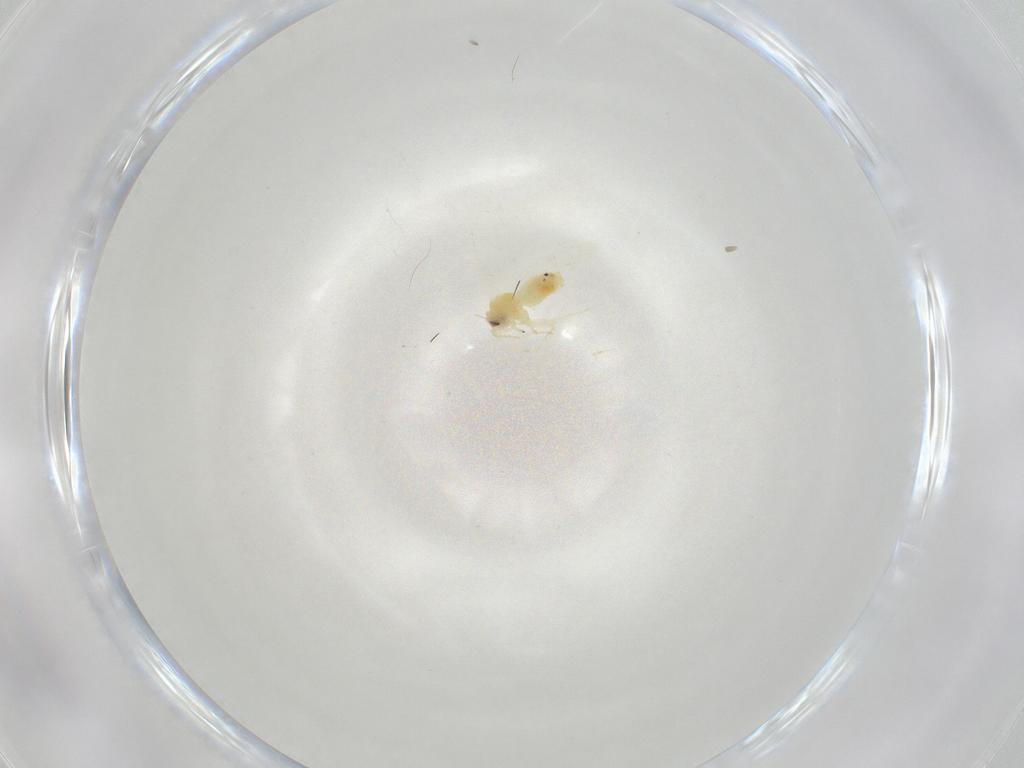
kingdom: Animalia
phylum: Arthropoda
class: Insecta
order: Hemiptera
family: Aleyrodidae
